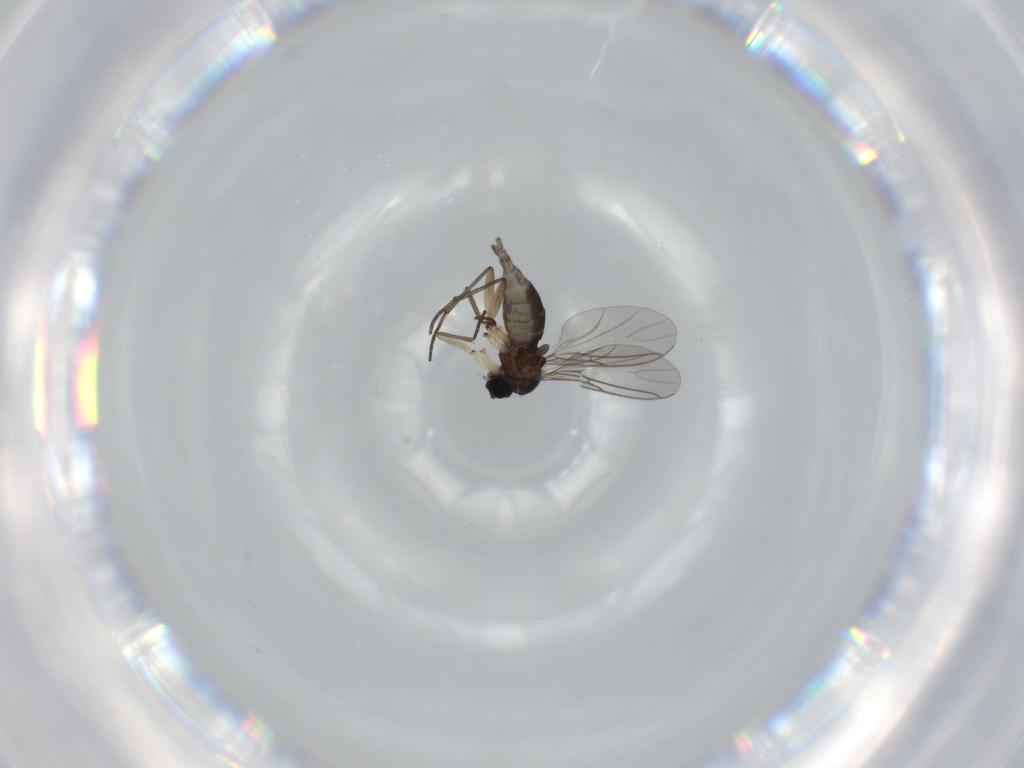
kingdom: Animalia
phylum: Arthropoda
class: Insecta
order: Diptera
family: Sciaridae
